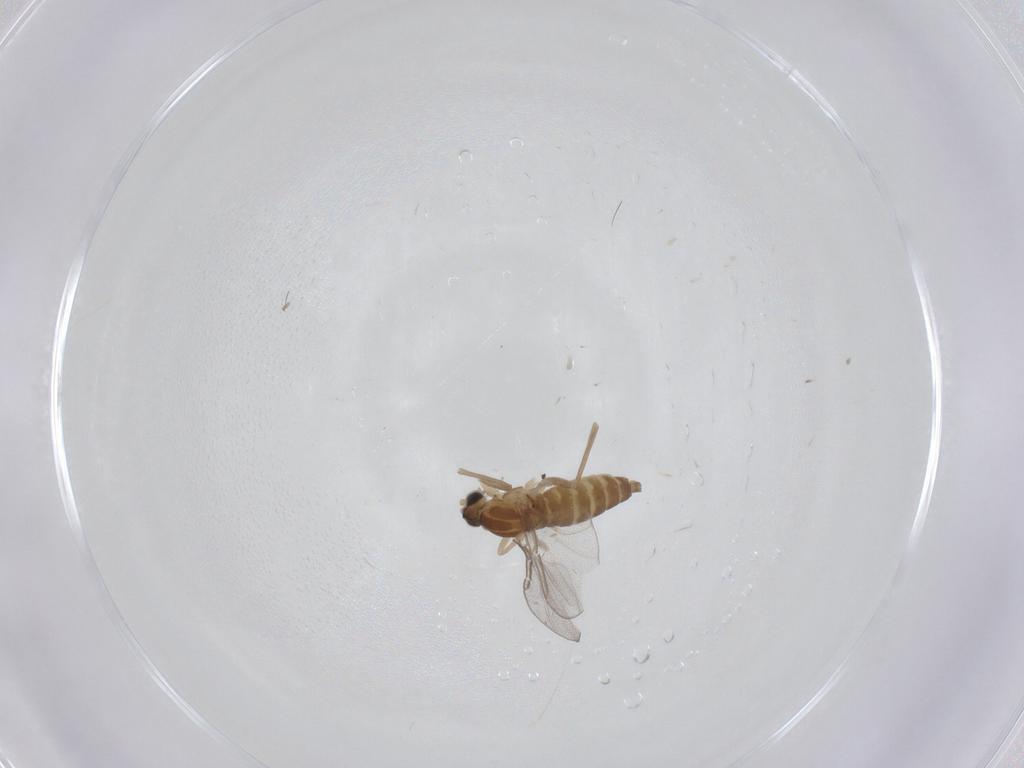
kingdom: Animalia
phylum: Arthropoda
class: Insecta
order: Diptera
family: Cecidomyiidae
